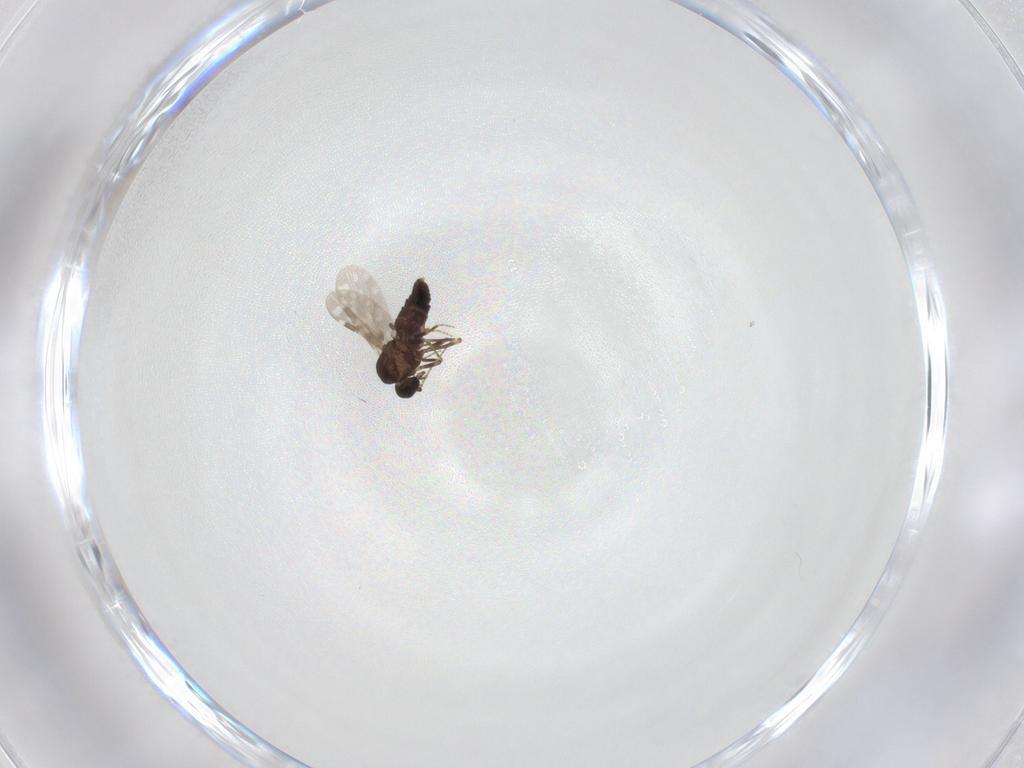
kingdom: Animalia
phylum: Arthropoda
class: Insecta
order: Diptera
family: Ceratopogonidae
